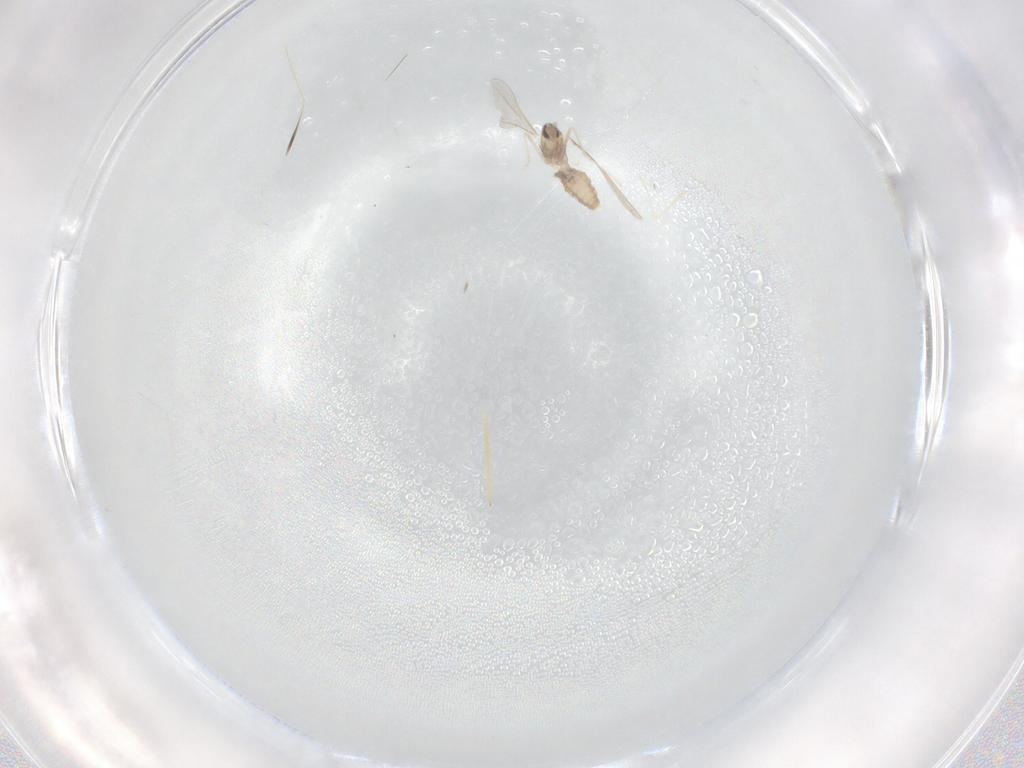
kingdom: Animalia
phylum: Arthropoda
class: Insecta
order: Diptera
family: Cecidomyiidae
